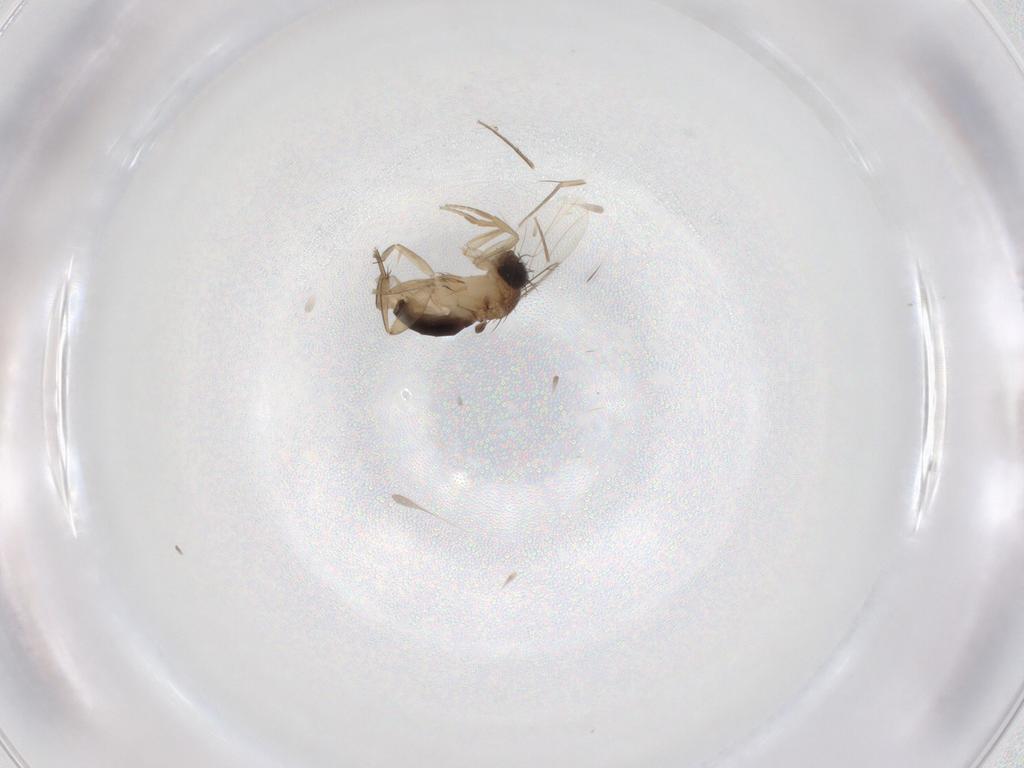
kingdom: Animalia
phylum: Arthropoda
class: Insecta
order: Diptera
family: Phoridae
